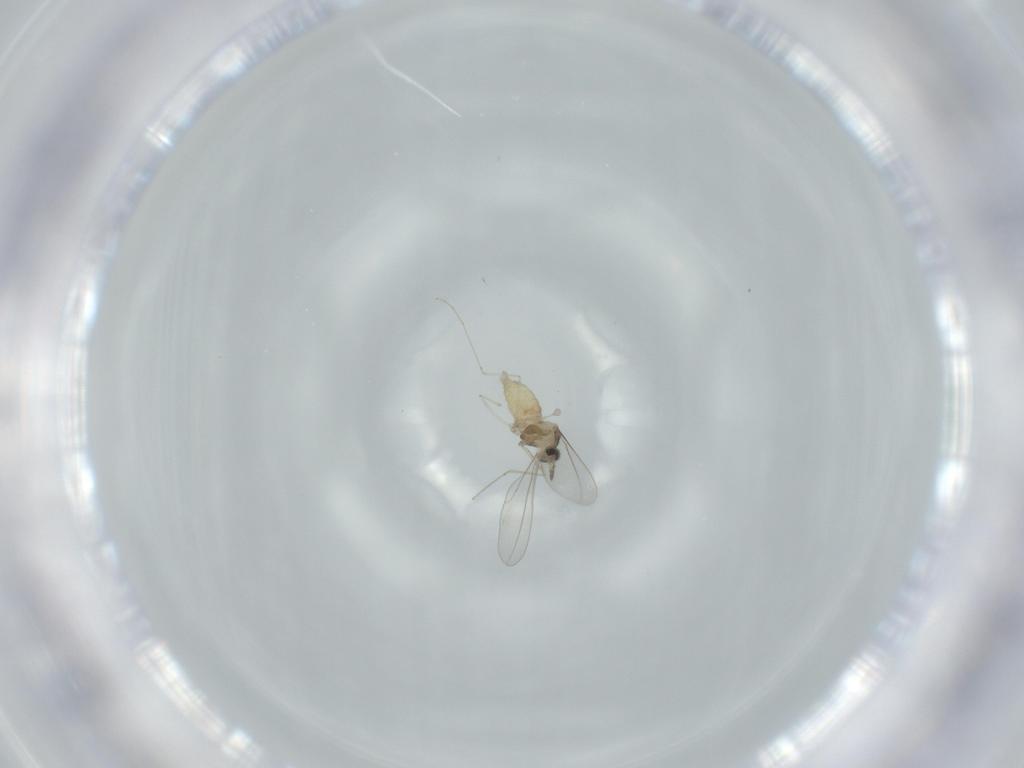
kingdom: Animalia
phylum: Arthropoda
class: Insecta
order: Diptera
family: Cecidomyiidae
